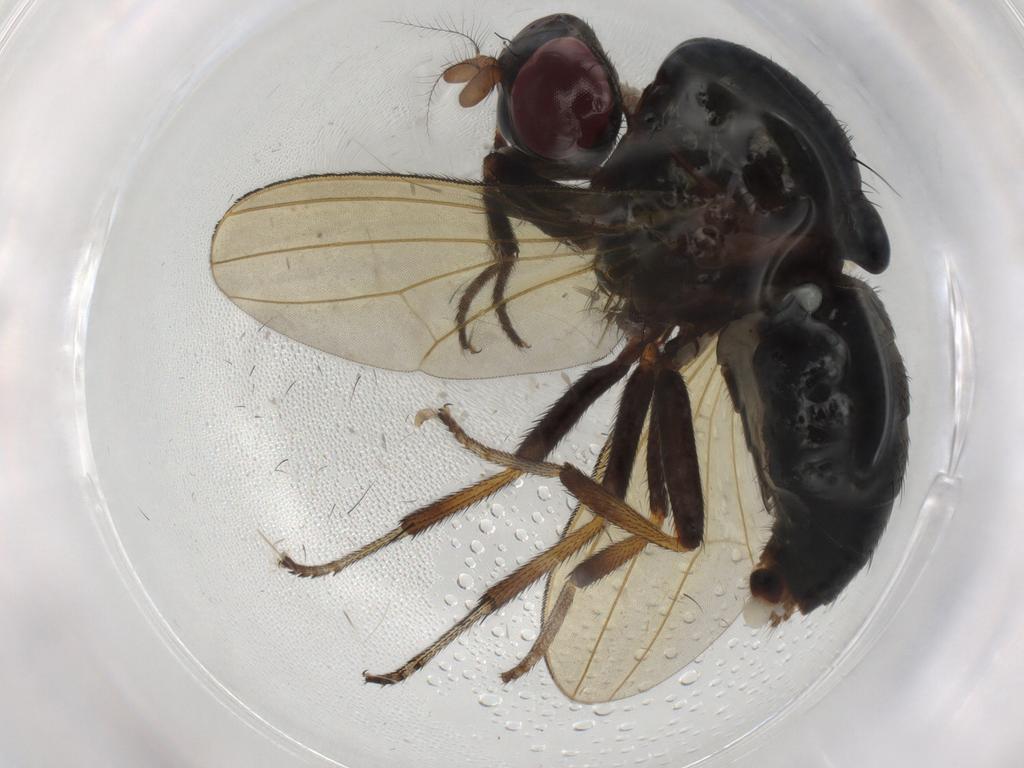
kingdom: Animalia
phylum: Arthropoda
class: Insecta
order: Diptera
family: Lauxaniidae
